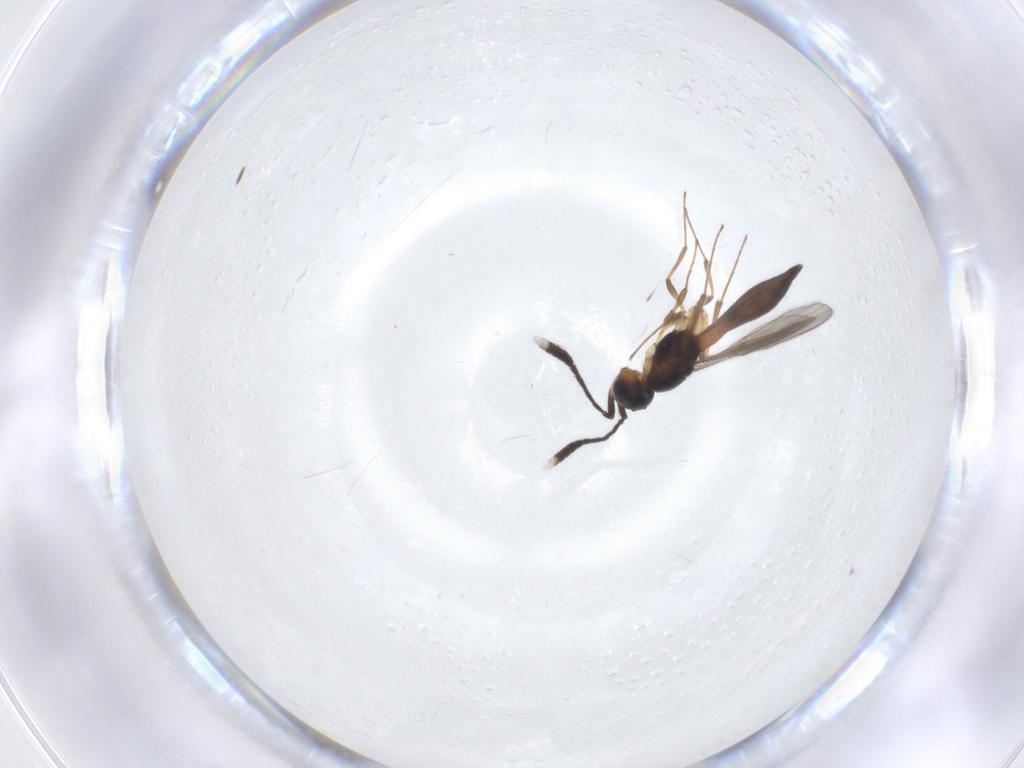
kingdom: Animalia
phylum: Arthropoda
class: Insecta
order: Hymenoptera
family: Scelionidae
